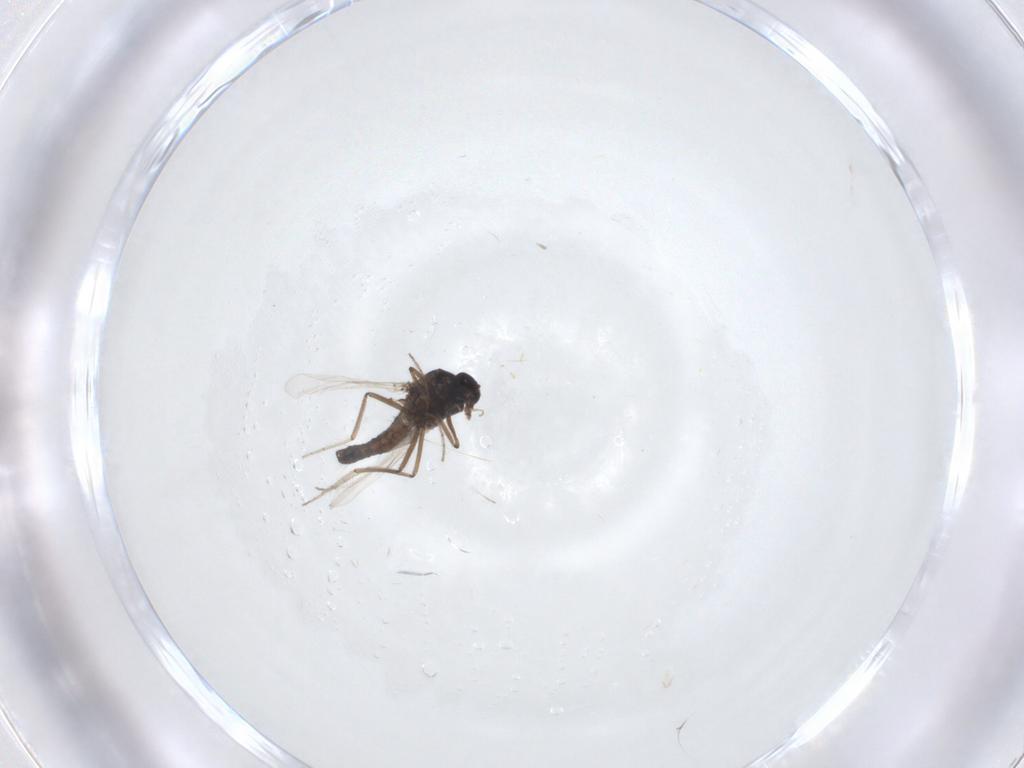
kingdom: Animalia
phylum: Arthropoda
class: Insecta
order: Diptera
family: Ceratopogonidae
